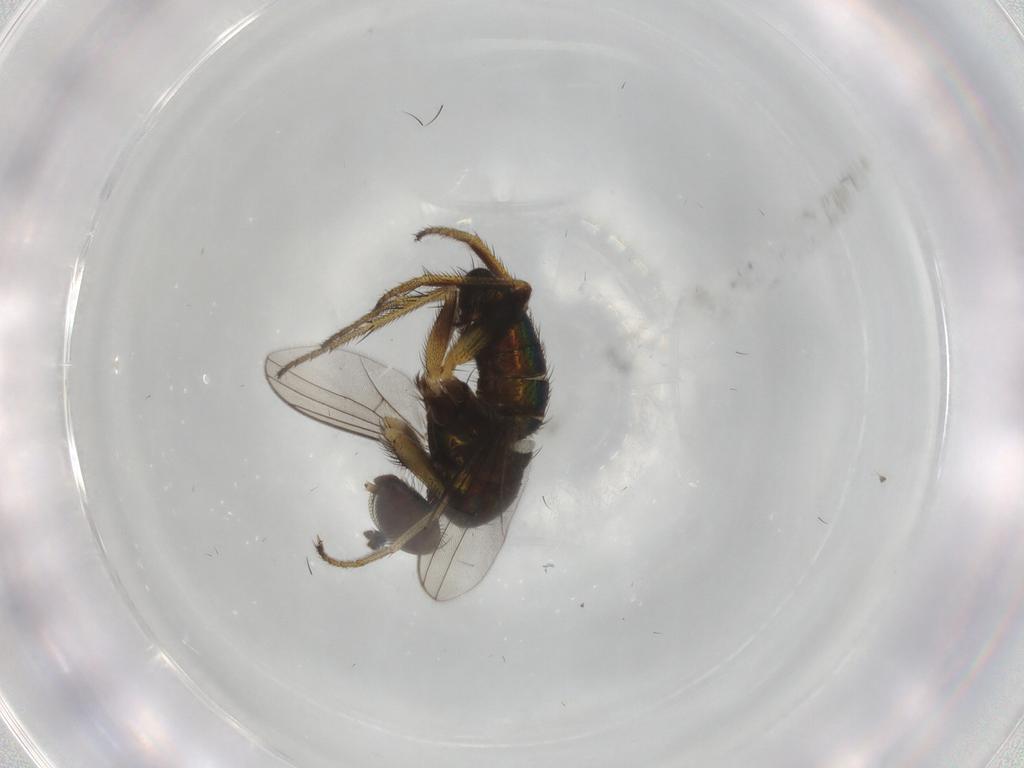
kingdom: Animalia
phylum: Arthropoda
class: Insecta
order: Diptera
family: Dolichopodidae
